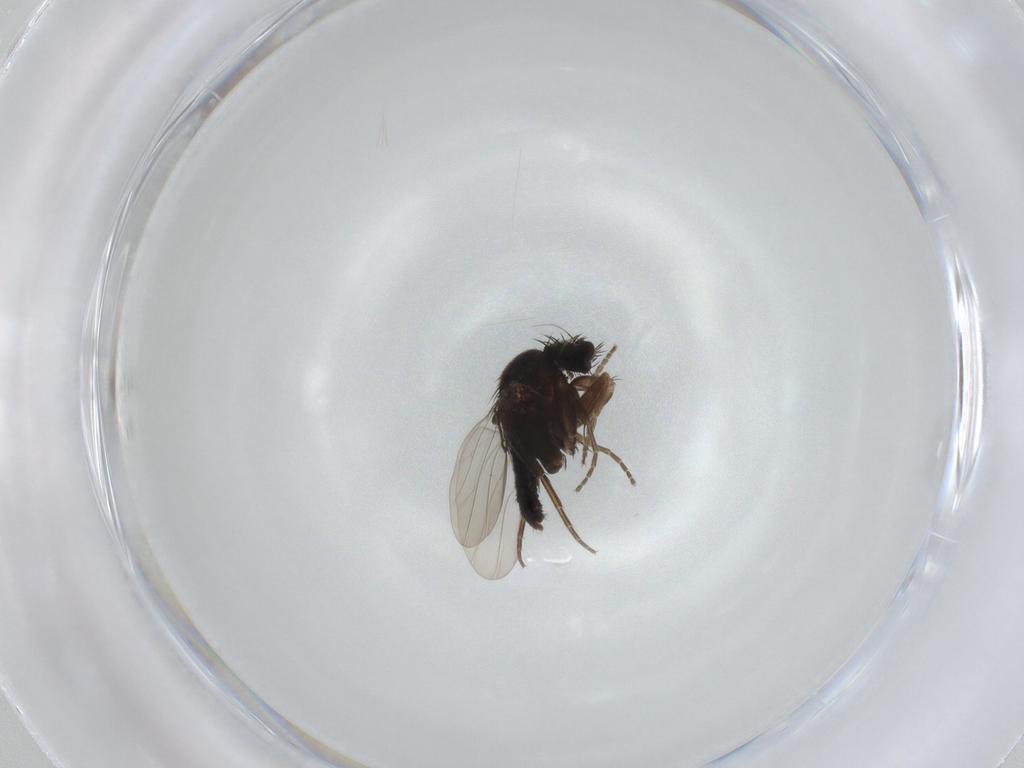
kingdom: Animalia
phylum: Arthropoda
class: Insecta
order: Diptera
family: Phoridae
